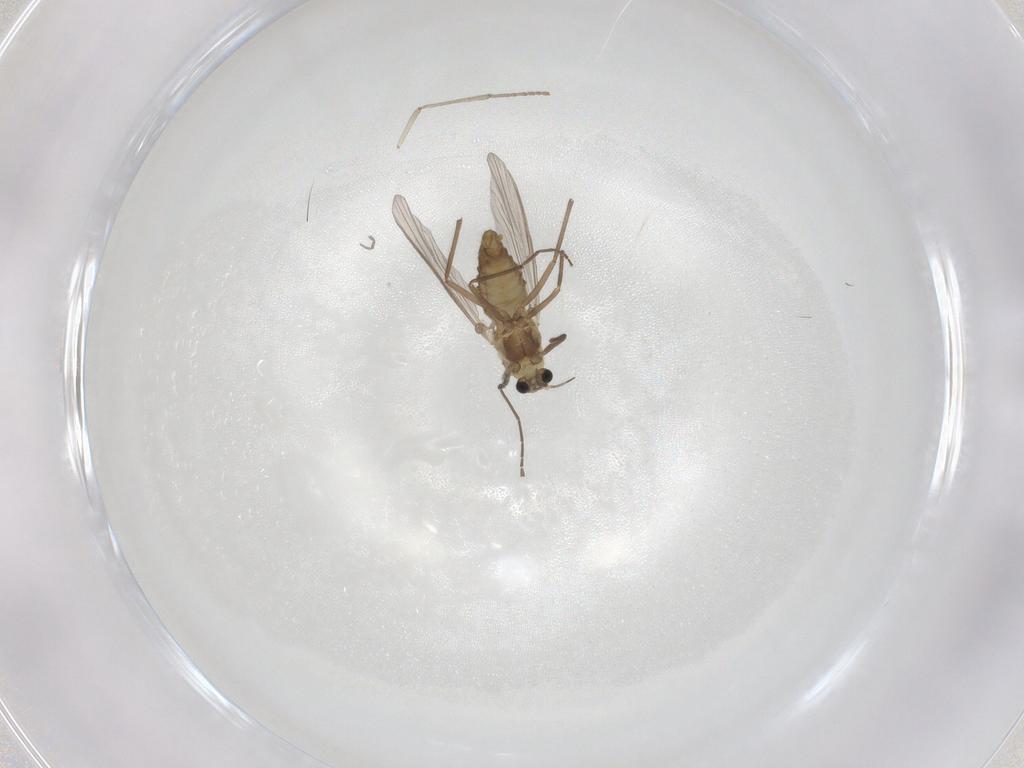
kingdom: Animalia
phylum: Arthropoda
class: Insecta
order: Diptera
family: Chironomidae
